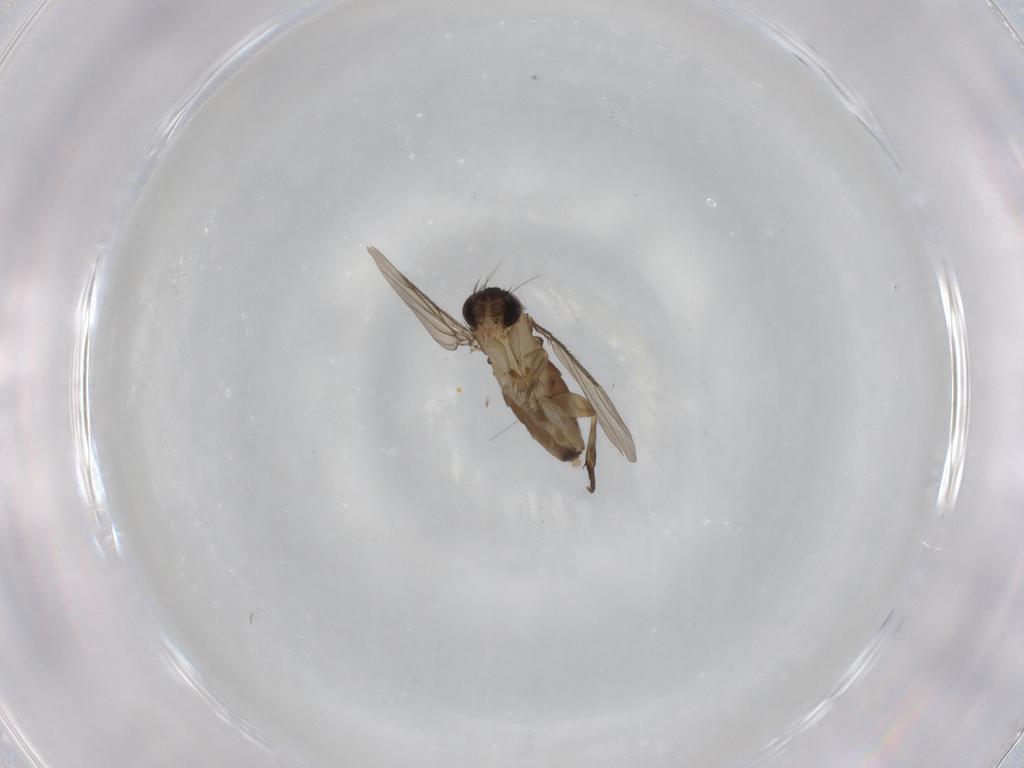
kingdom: Animalia
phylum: Arthropoda
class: Insecta
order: Diptera
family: Phoridae
